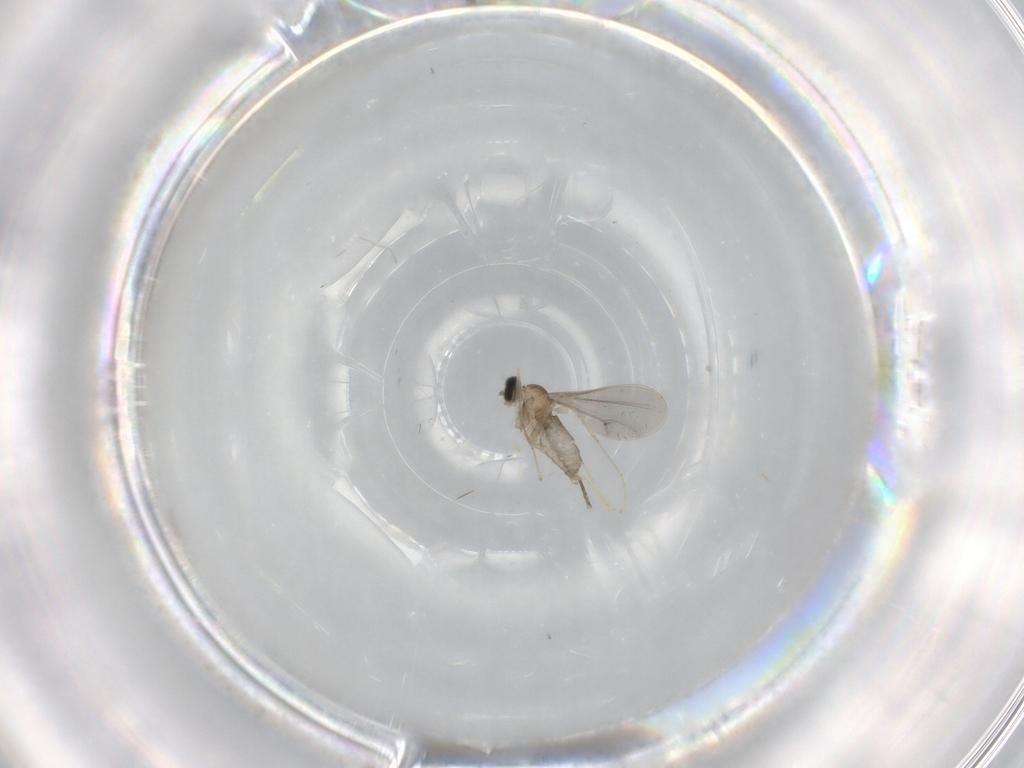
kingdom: Animalia
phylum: Arthropoda
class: Insecta
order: Diptera
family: Cecidomyiidae
